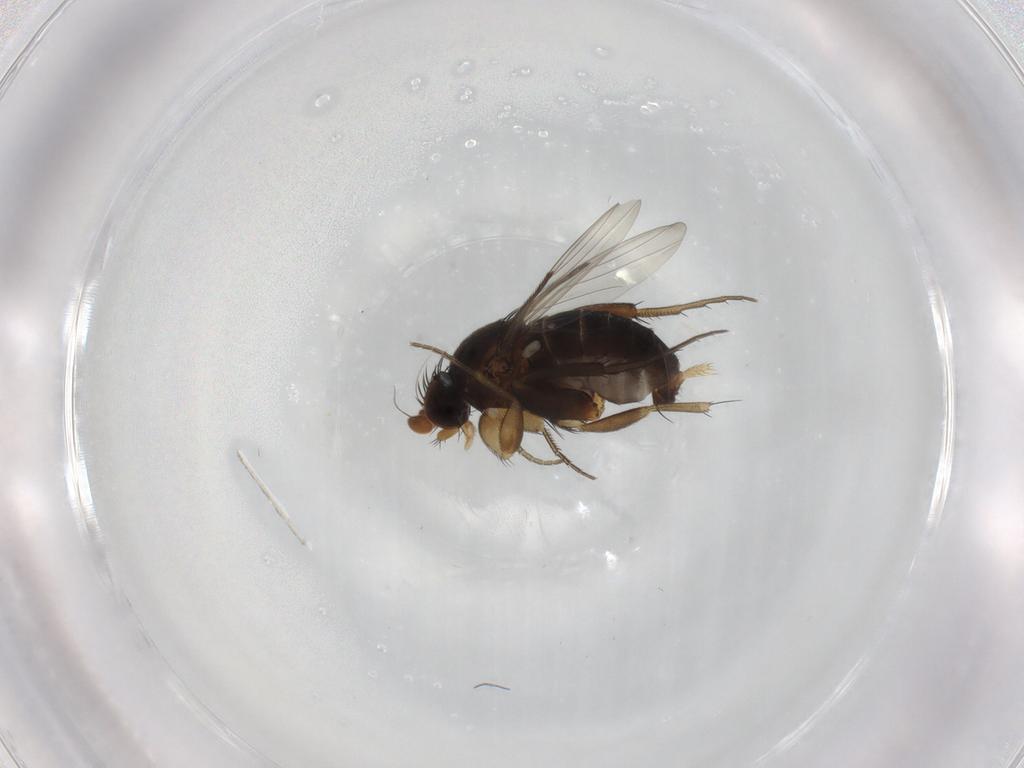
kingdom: Animalia
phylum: Arthropoda
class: Insecta
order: Diptera
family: Phoridae
